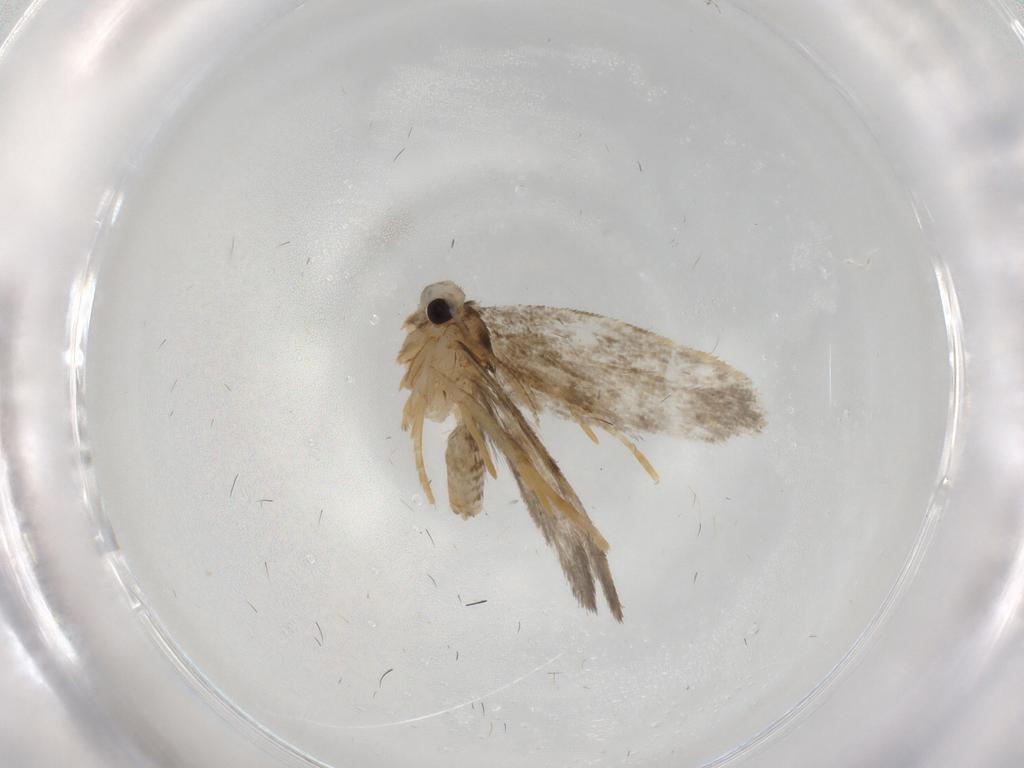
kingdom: Animalia
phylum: Arthropoda
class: Insecta
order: Lepidoptera
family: Psychidae
